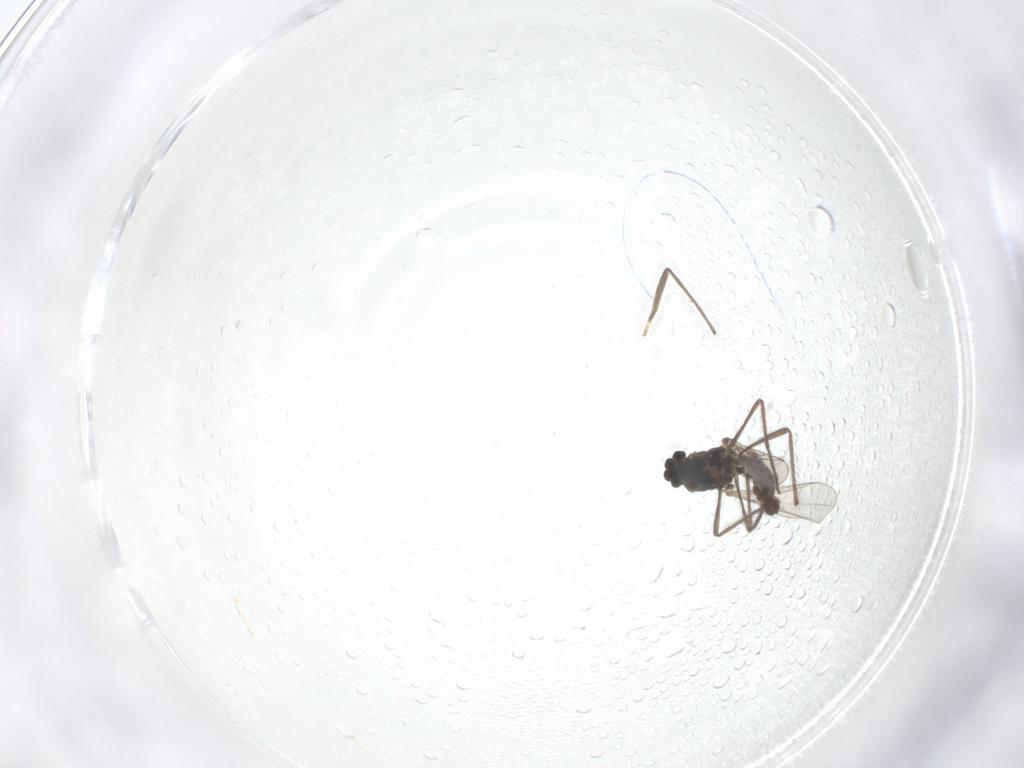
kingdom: Animalia
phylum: Arthropoda
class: Insecta
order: Diptera
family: Chironomidae
